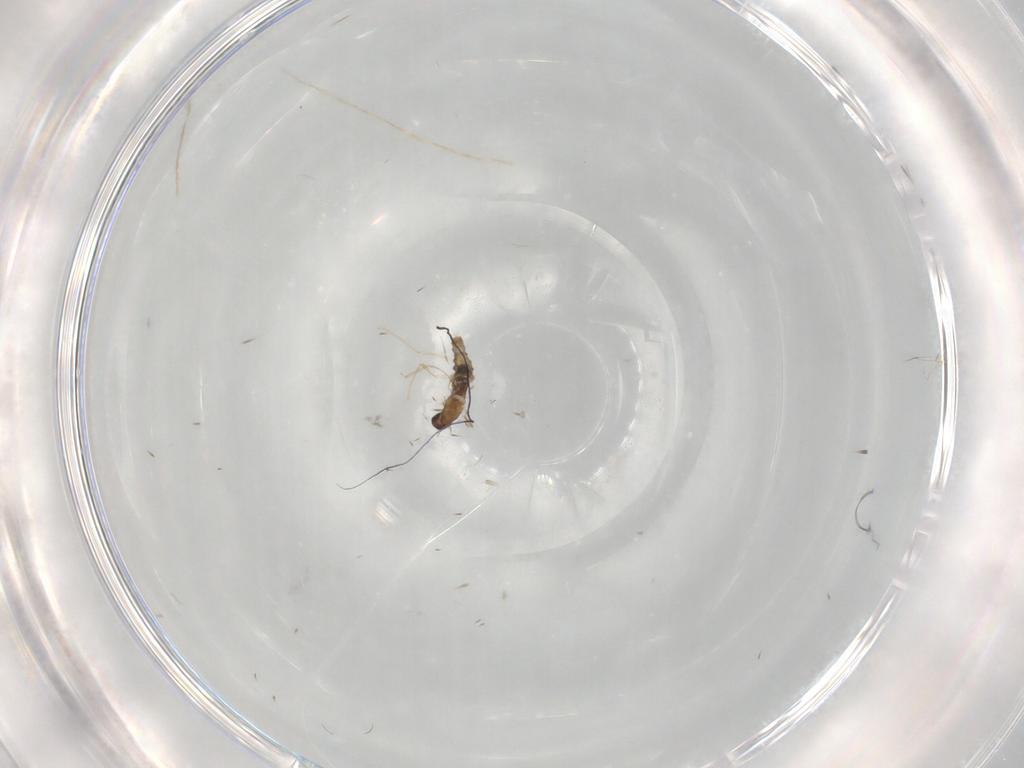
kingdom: Animalia
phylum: Arthropoda
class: Insecta
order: Diptera
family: Cecidomyiidae
